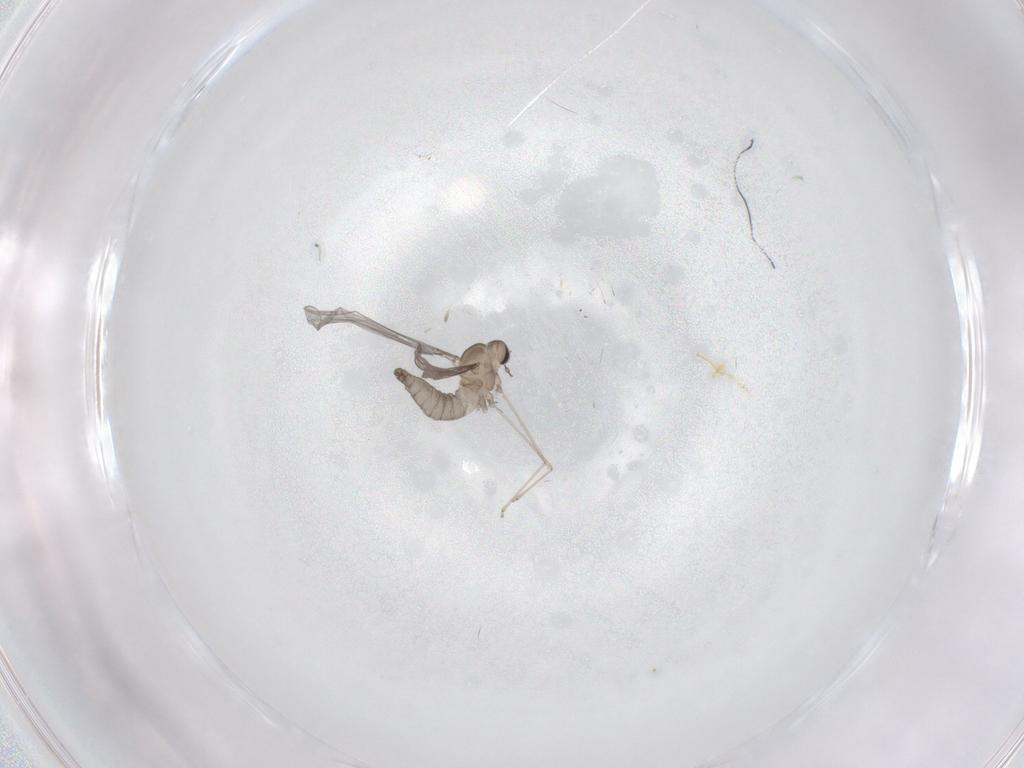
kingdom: Animalia
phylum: Arthropoda
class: Insecta
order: Diptera
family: Cecidomyiidae
